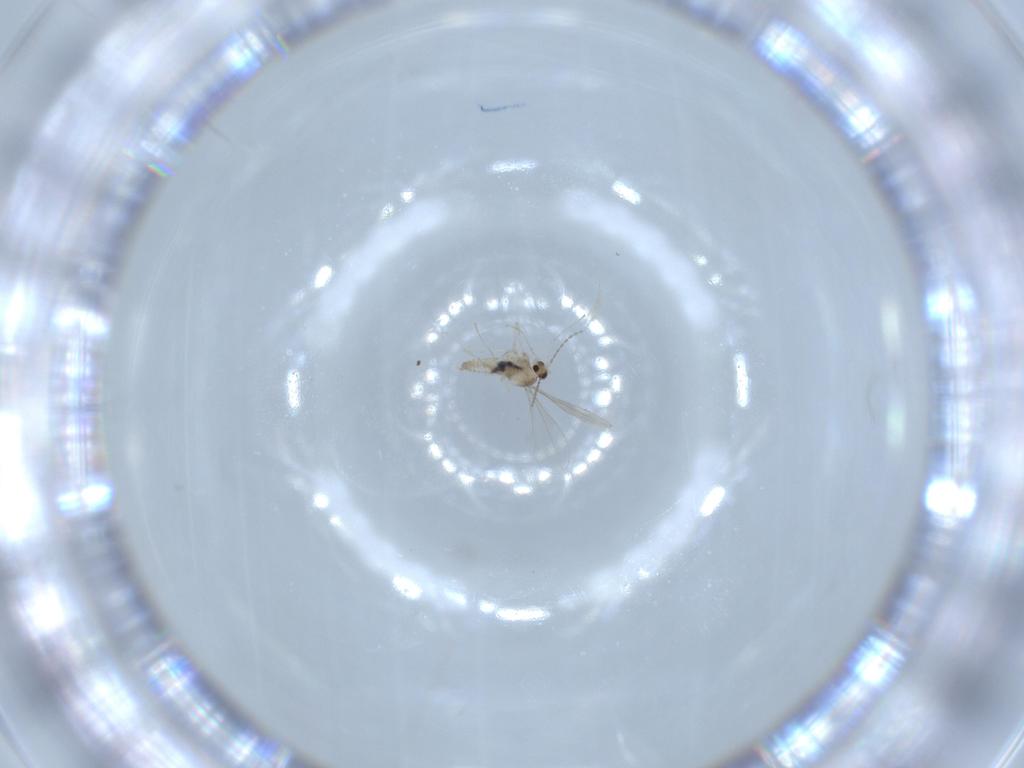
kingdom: Animalia
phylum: Arthropoda
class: Insecta
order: Diptera
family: Cecidomyiidae
